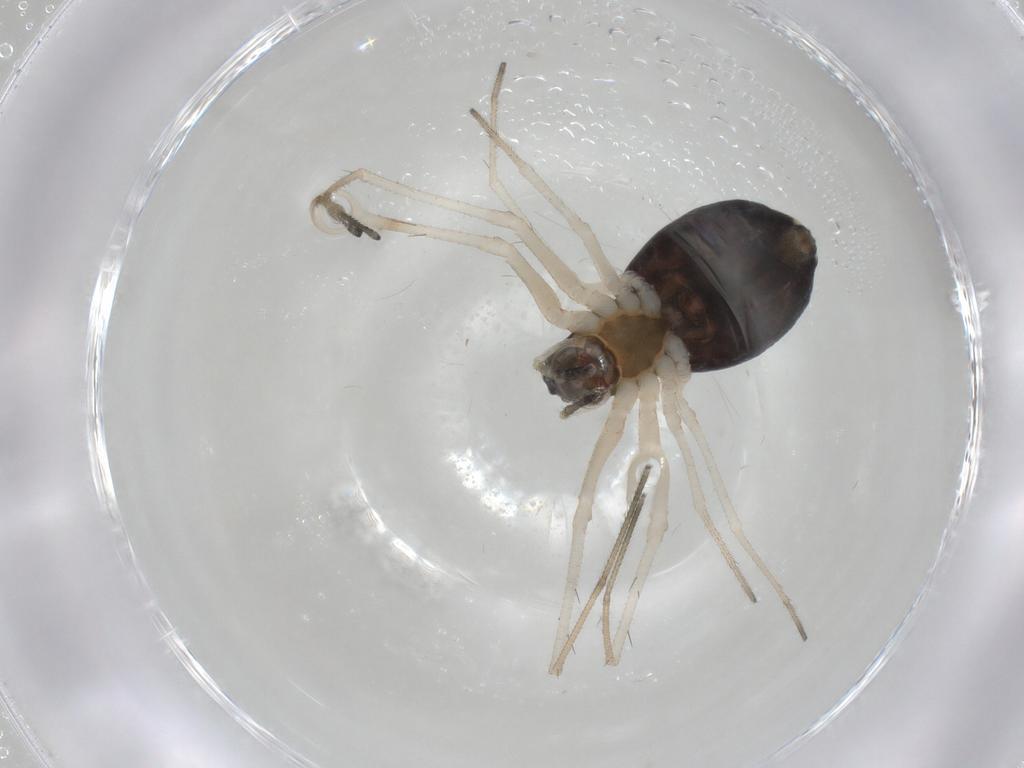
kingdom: Animalia
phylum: Arthropoda
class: Arachnida
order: Araneae
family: Linyphiidae
